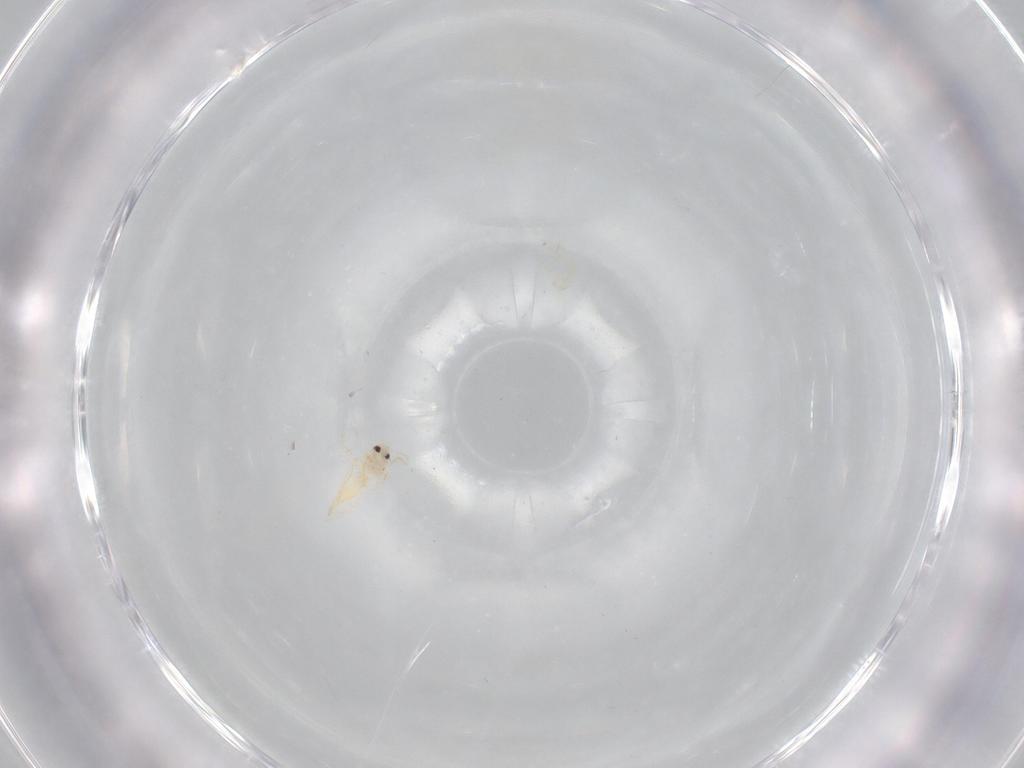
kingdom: Animalia
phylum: Arthropoda
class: Insecta
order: Hemiptera
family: Aleyrodidae
